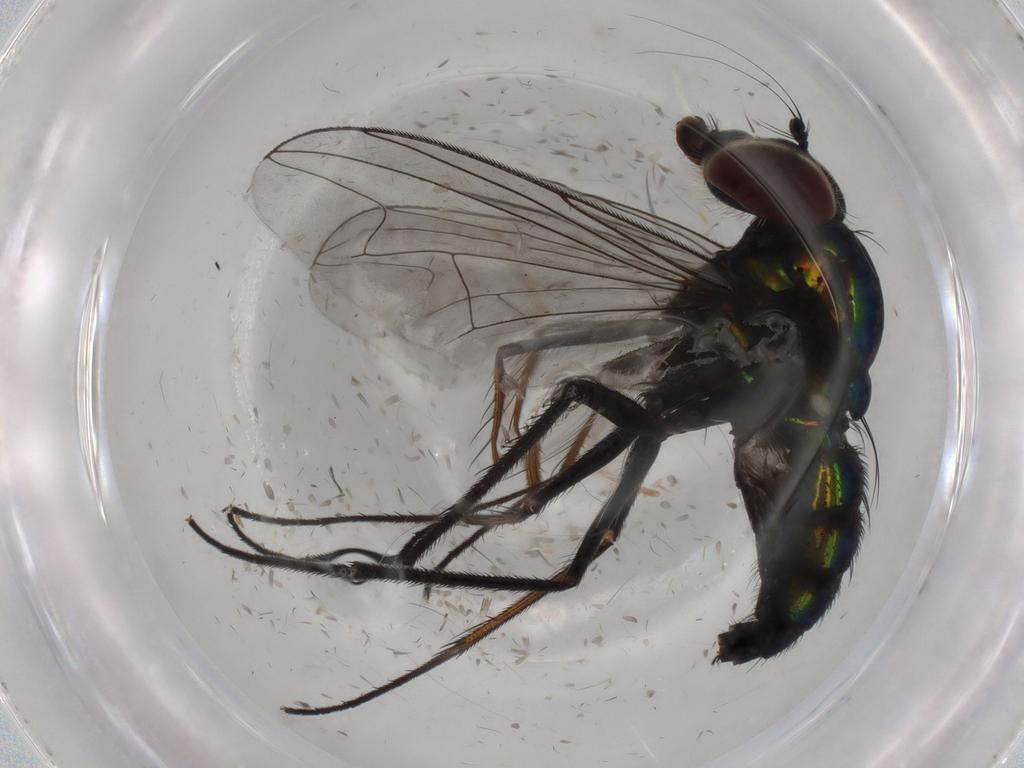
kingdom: Animalia
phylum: Arthropoda
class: Insecta
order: Diptera
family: Dolichopodidae
